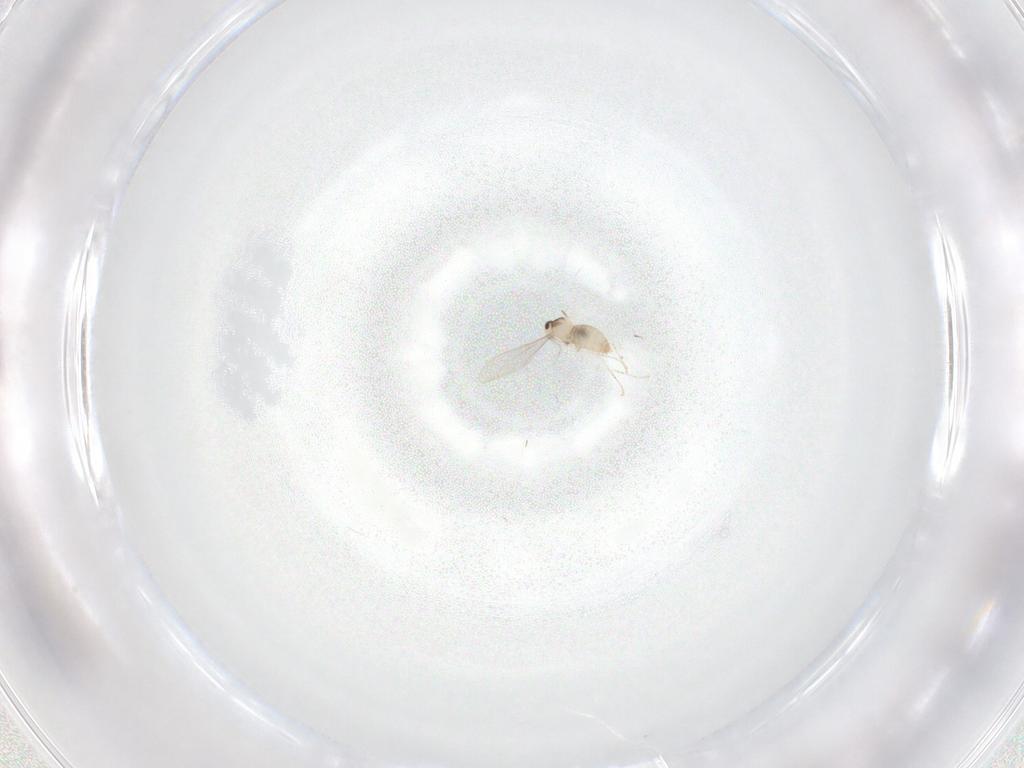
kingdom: Animalia
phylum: Arthropoda
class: Insecta
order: Diptera
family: Cecidomyiidae
